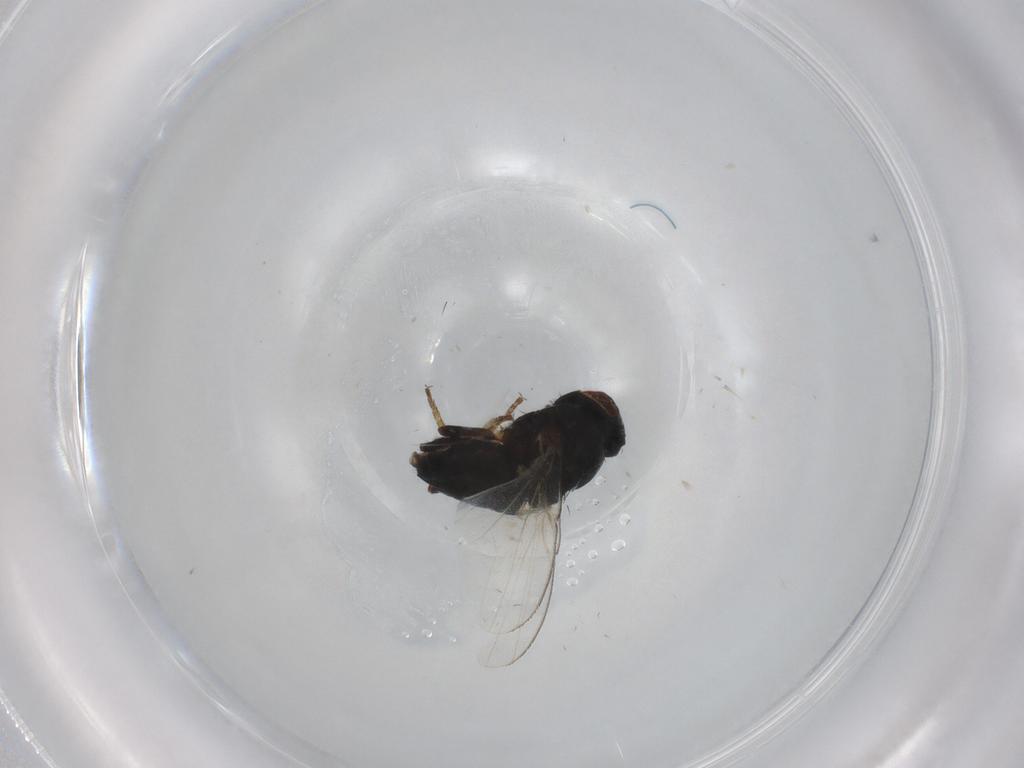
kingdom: Animalia
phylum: Arthropoda
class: Insecta
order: Diptera
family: Milichiidae
